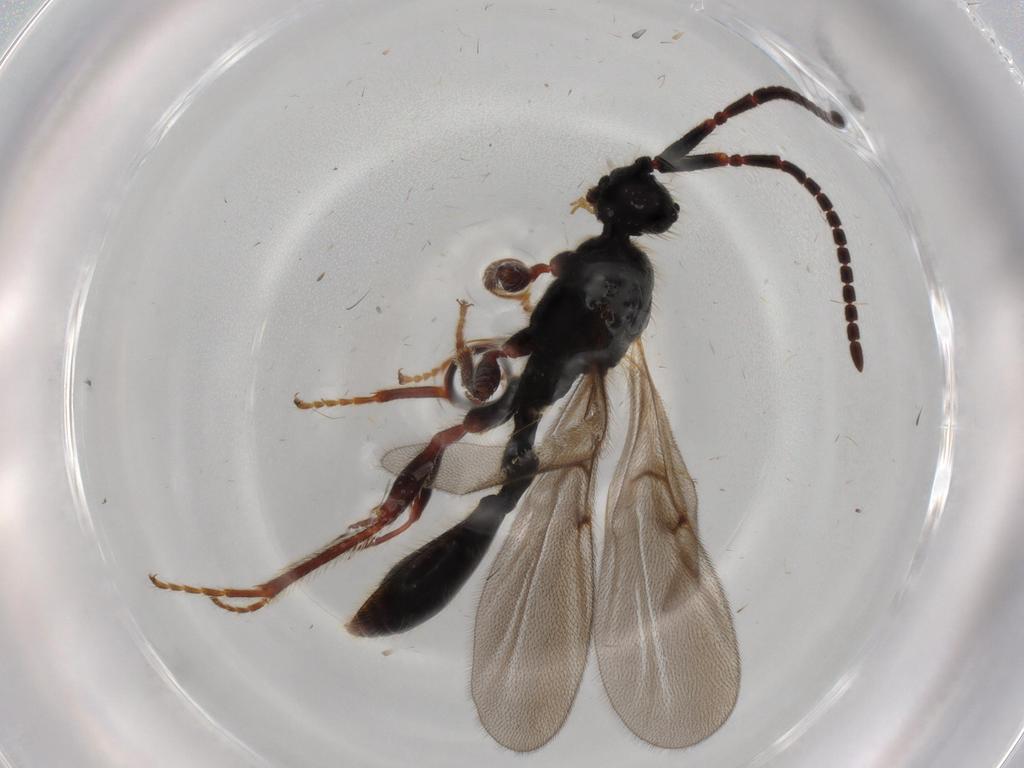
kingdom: Animalia
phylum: Arthropoda
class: Insecta
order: Hymenoptera
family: Diapriidae
